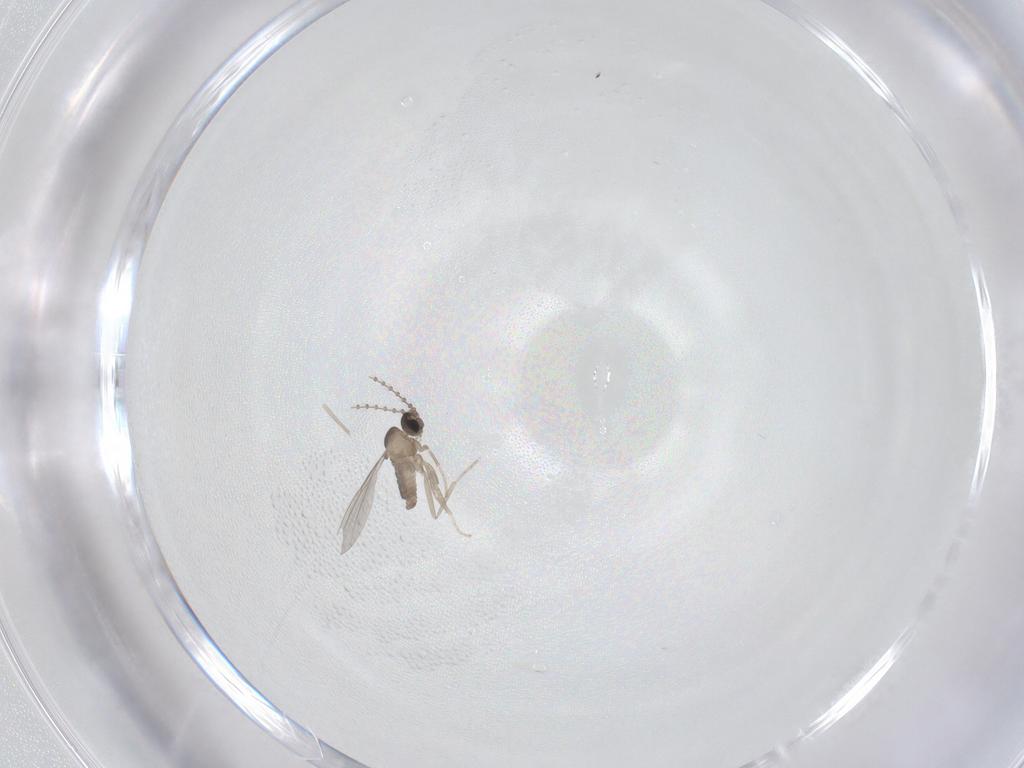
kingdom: Animalia
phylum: Arthropoda
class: Insecta
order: Diptera
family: Cecidomyiidae
